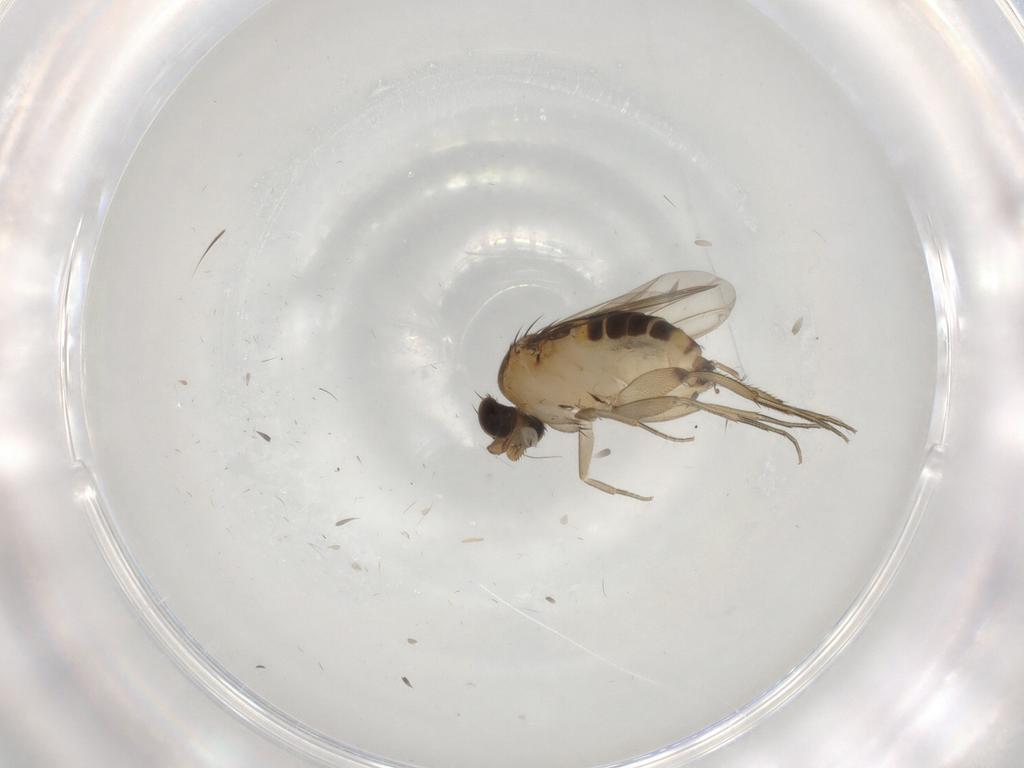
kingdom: Animalia
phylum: Arthropoda
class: Insecta
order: Diptera
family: Phoridae
